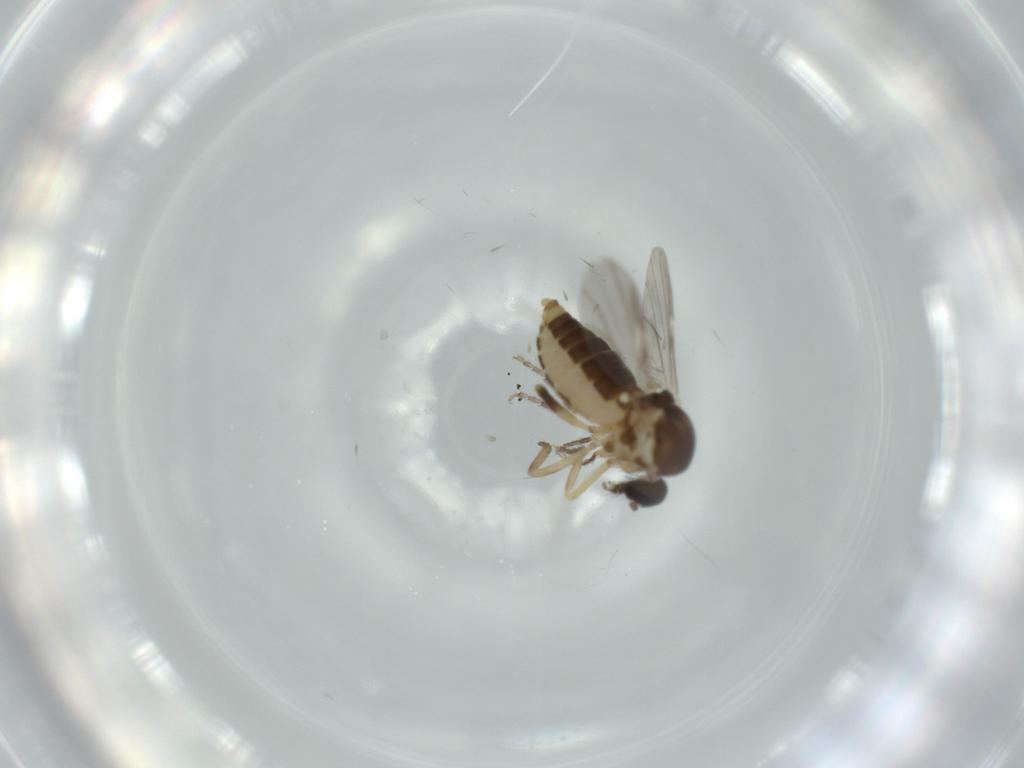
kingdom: Animalia
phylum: Arthropoda
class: Insecta
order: Diptera
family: Ceratopogonidae
